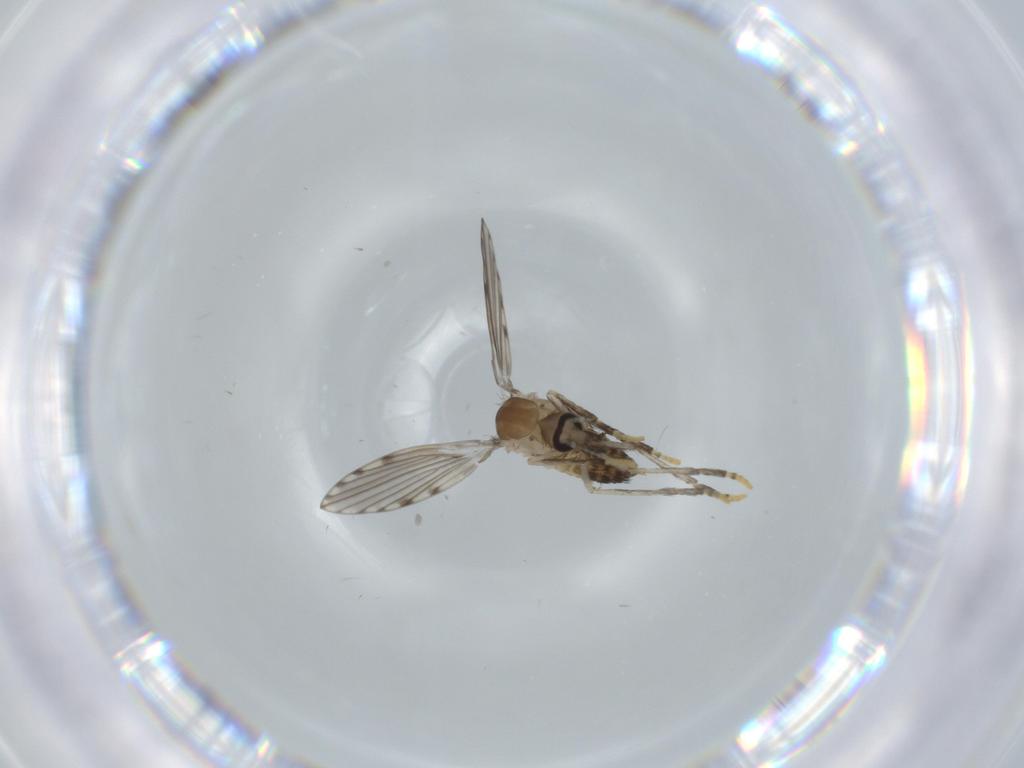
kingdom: Animalia
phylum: Arthropoda
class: Insecta
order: Diptera
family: Psychodidae
